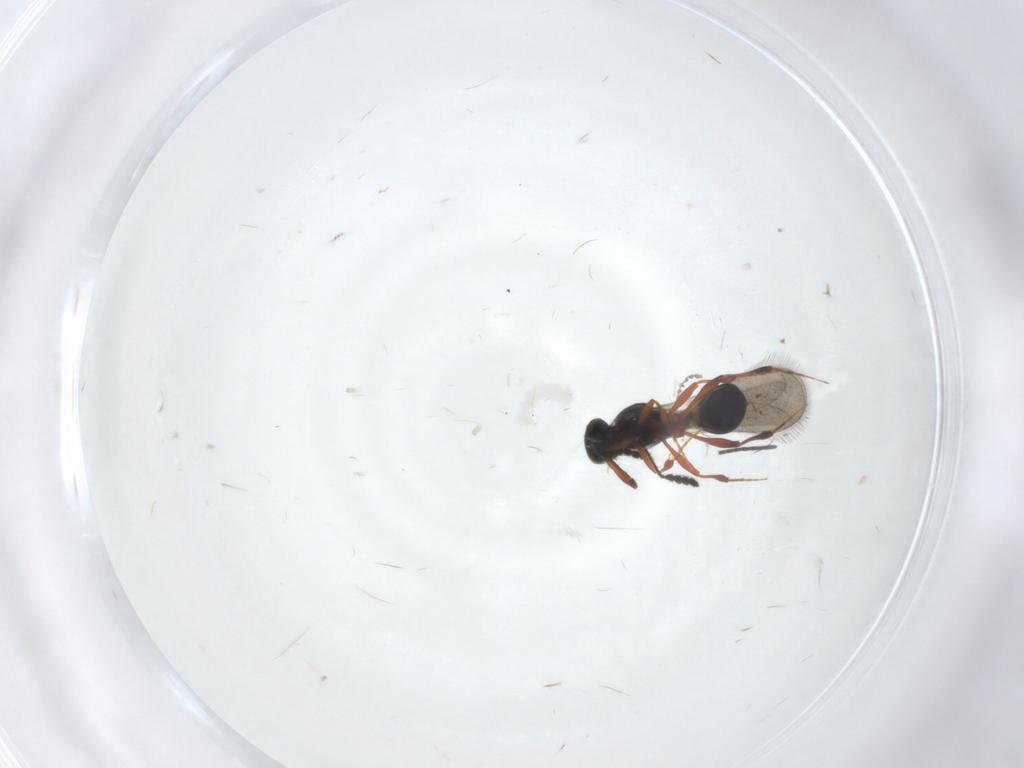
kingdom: Animalia
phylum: Arthropoda
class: Insecta
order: Hymenoptera
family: Platygastridae
